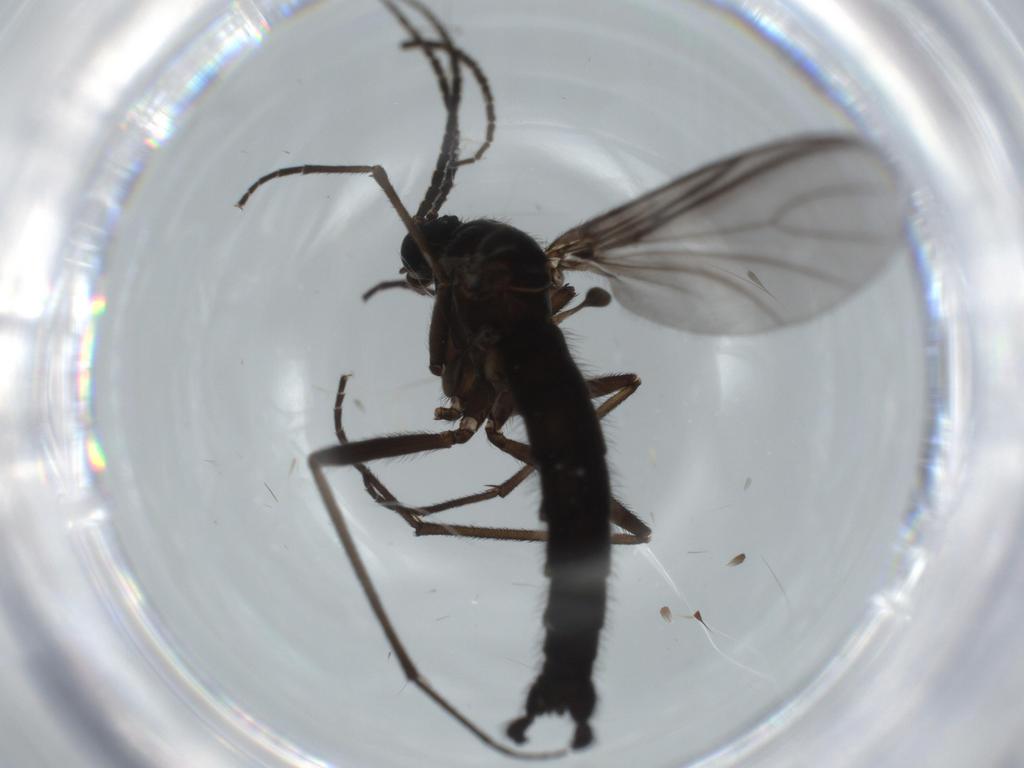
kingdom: Animalia
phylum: Arthropoda
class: Insecta
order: Diptera
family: Cecidomyiidae
